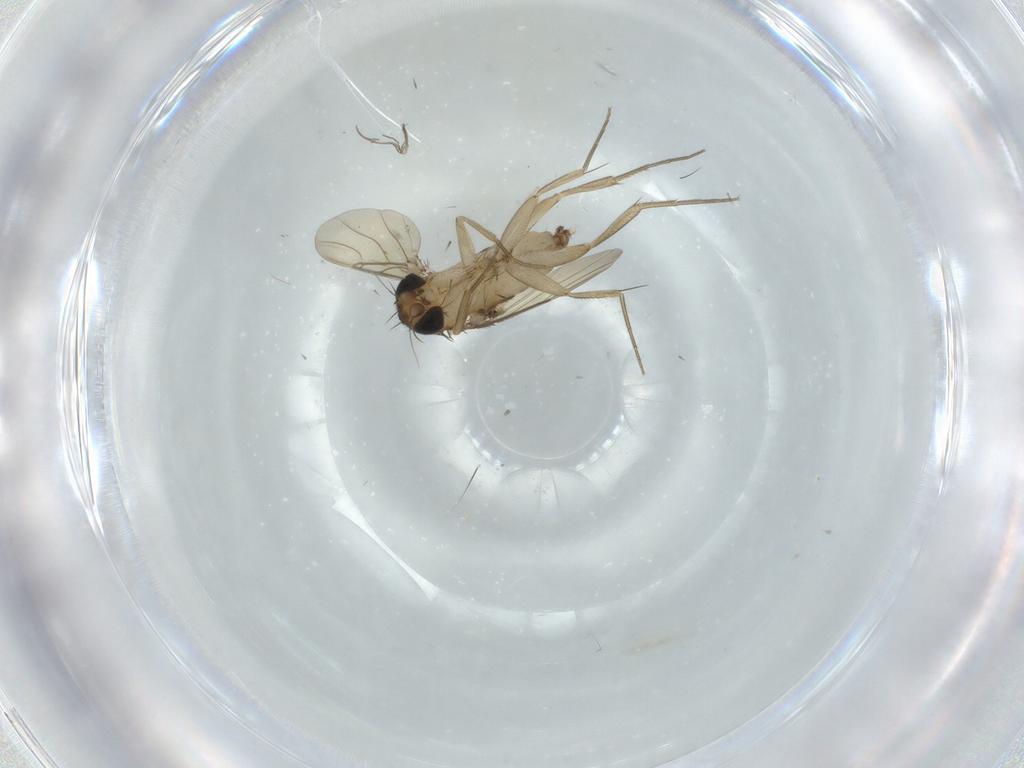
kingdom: Animalia
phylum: Arthropoda
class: Insecta
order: Diptera
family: Phoridae
